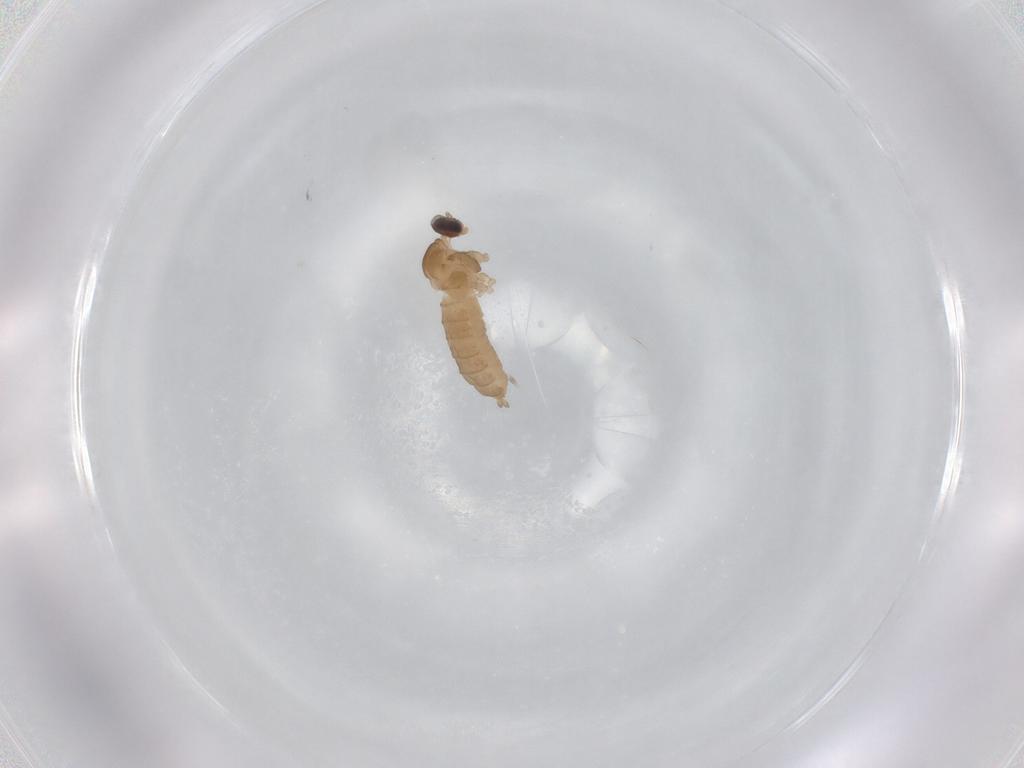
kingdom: Animalia
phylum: Arthropoda
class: Insecta
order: Diptera
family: Cecidomyiidae
